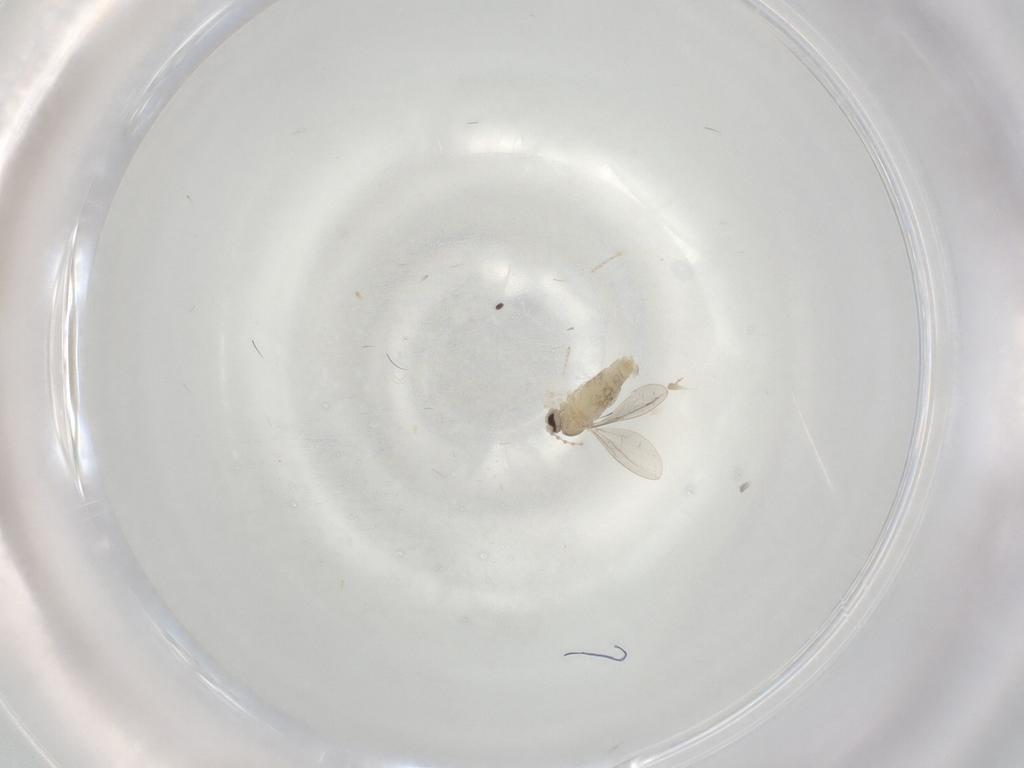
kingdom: Animalia
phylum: Arthropoda
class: Insecta
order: Diptera
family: Cecidomyiidae
